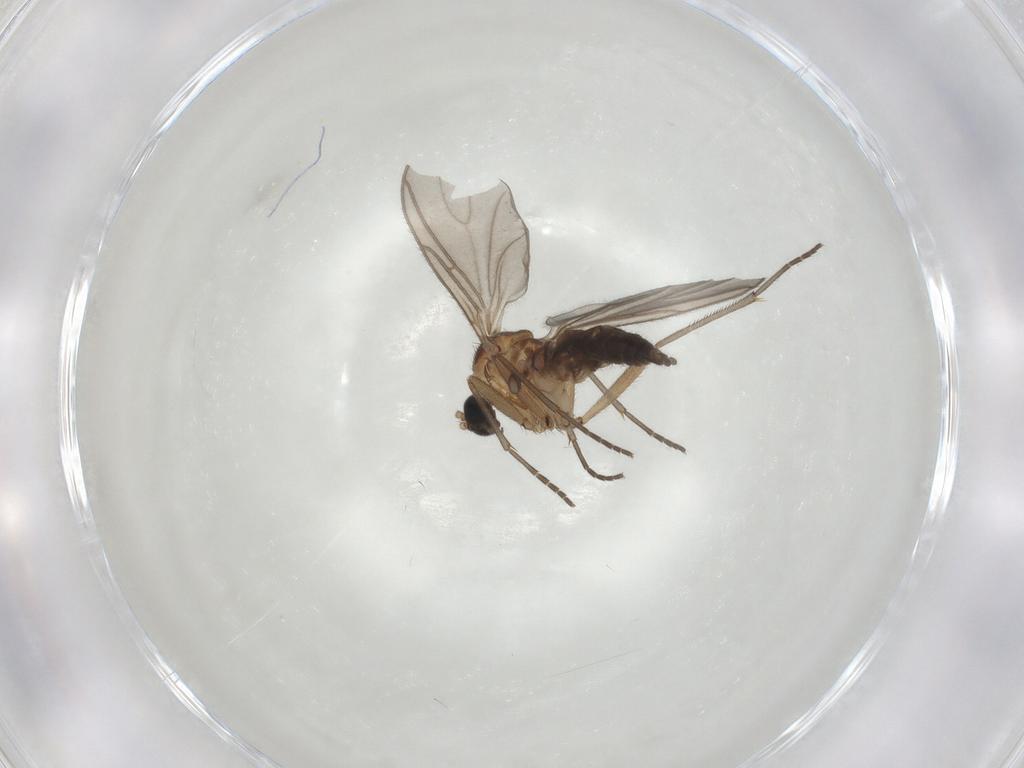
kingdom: Animalia
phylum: Arthropoda
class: Insecta
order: Diptera
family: Sciaridae
